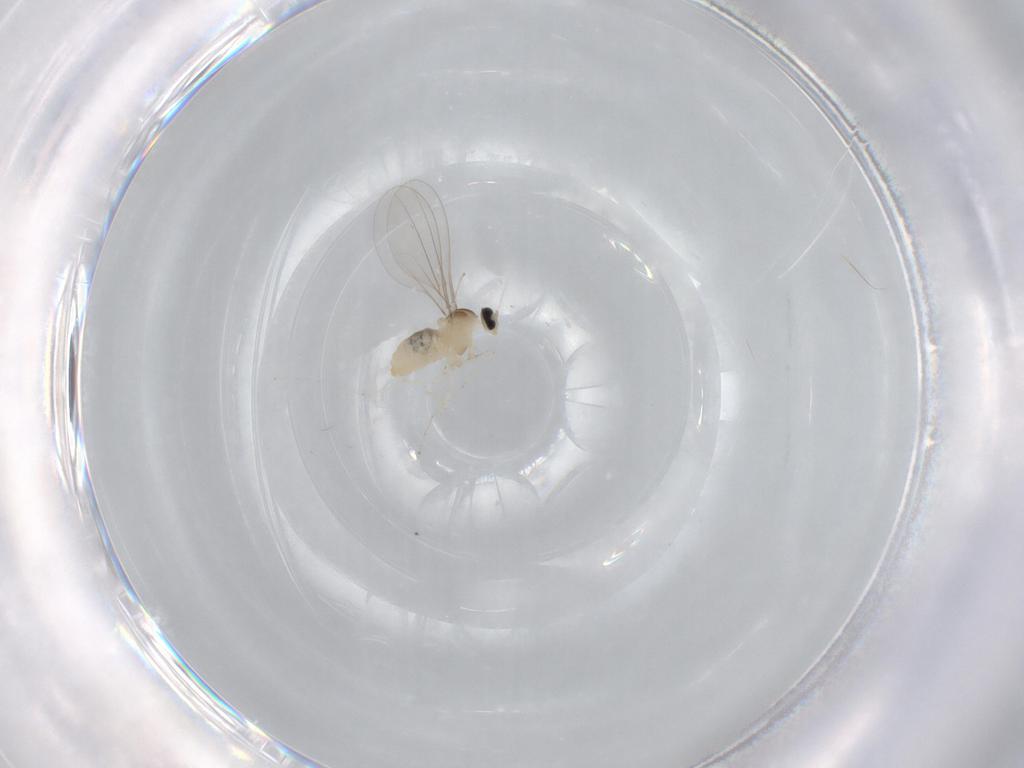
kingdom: Animalia
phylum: Arthropoda
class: Insecta
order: Diptera
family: Cecidomyiidae
